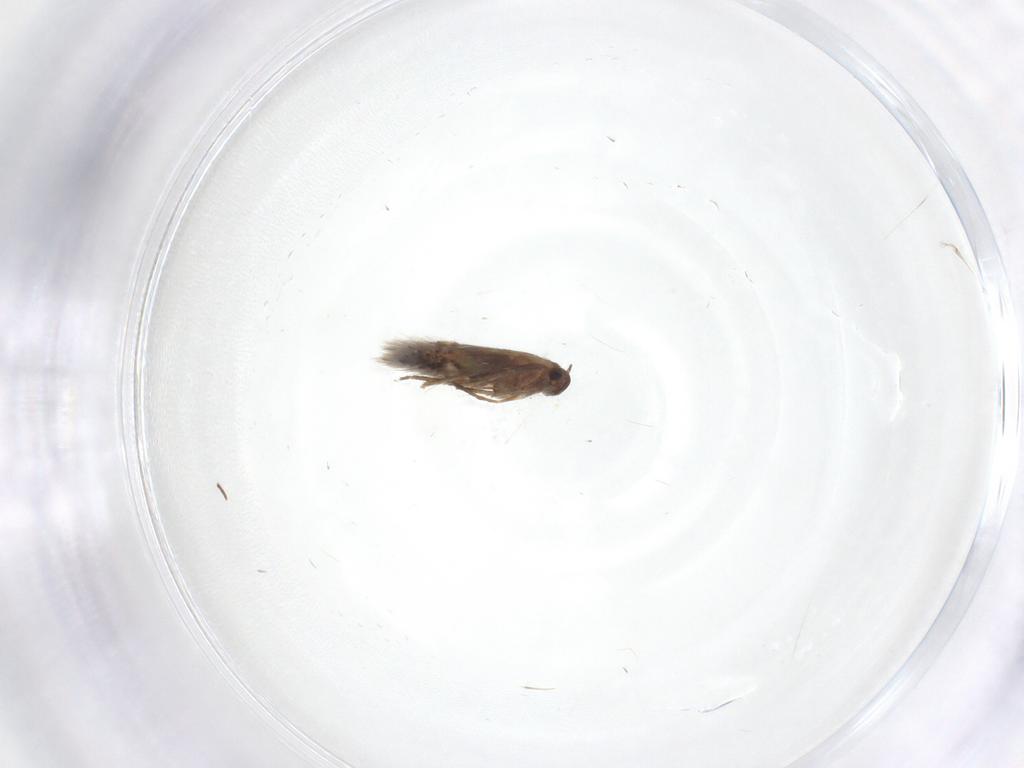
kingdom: Animalia
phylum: Arthropoda
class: Insecta
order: Lepidoptera
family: Heliozelidae
